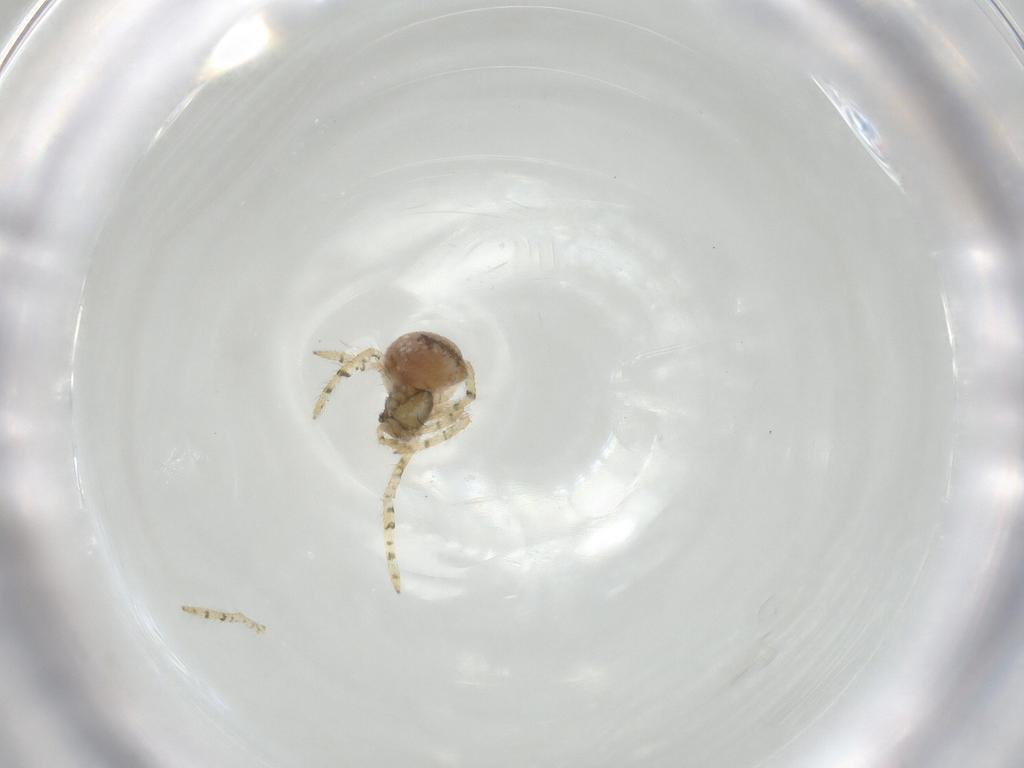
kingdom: Animalia
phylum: Arthropoda
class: Arachnida
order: Araneae
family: Theridiidae
